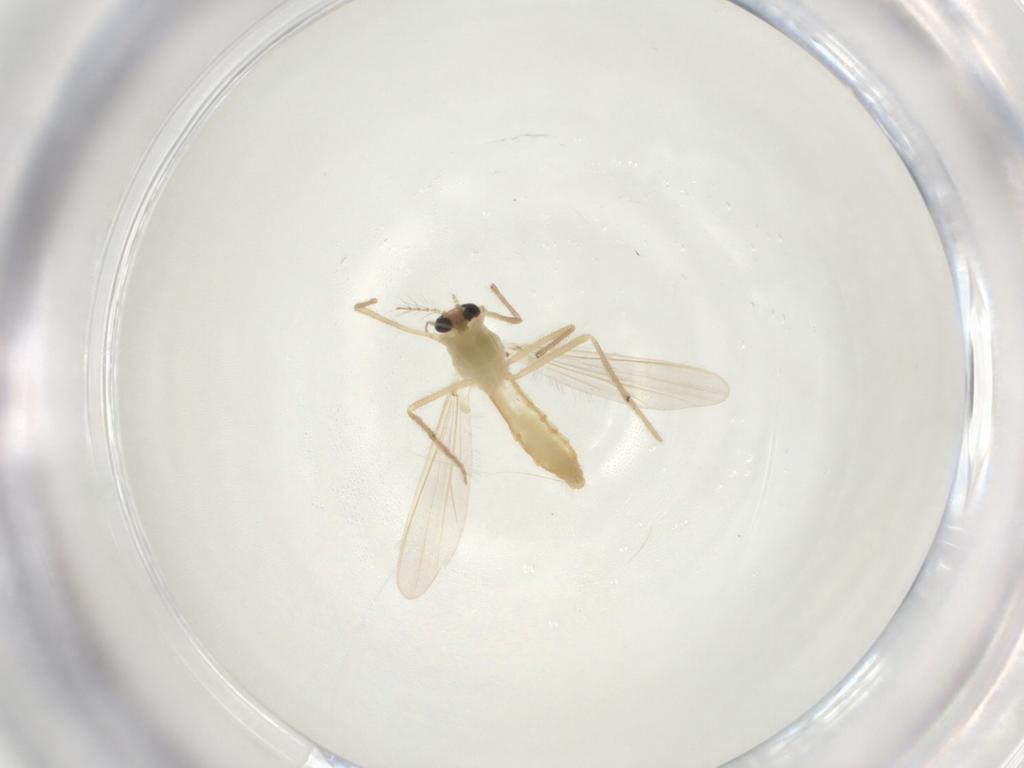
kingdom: Animalia
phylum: Arthropoda
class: Insecta
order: Diptera
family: Chironomidae
